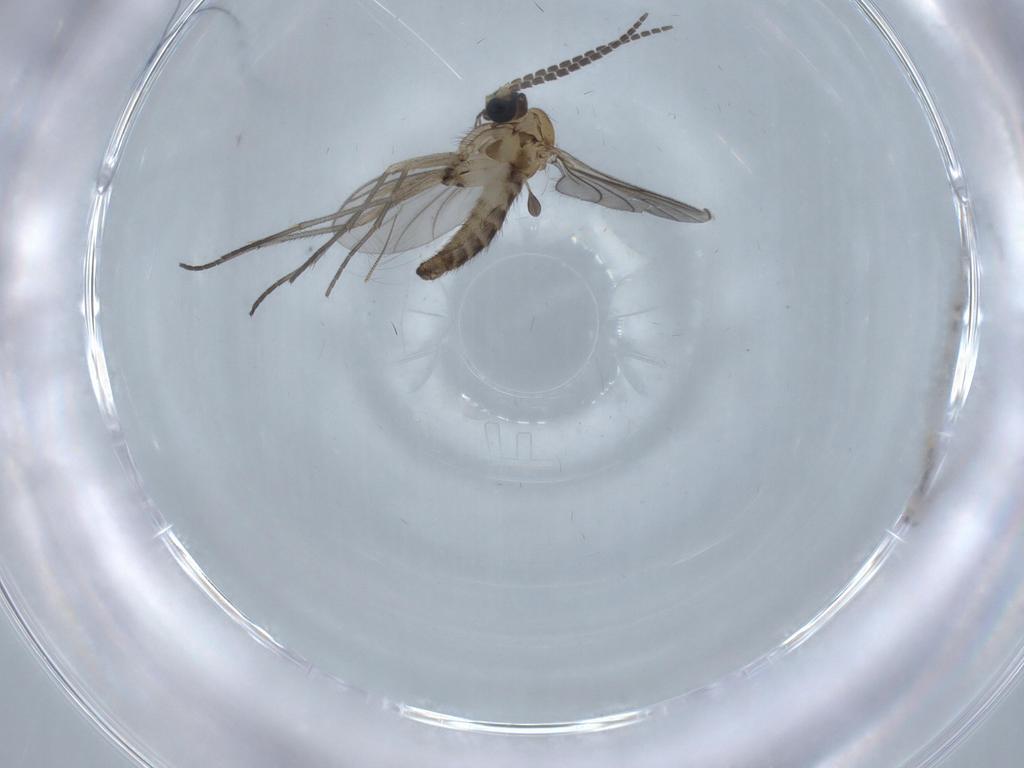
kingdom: Animalia
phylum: Arthropoda
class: Insecta
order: Diptera
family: Sciaridae
